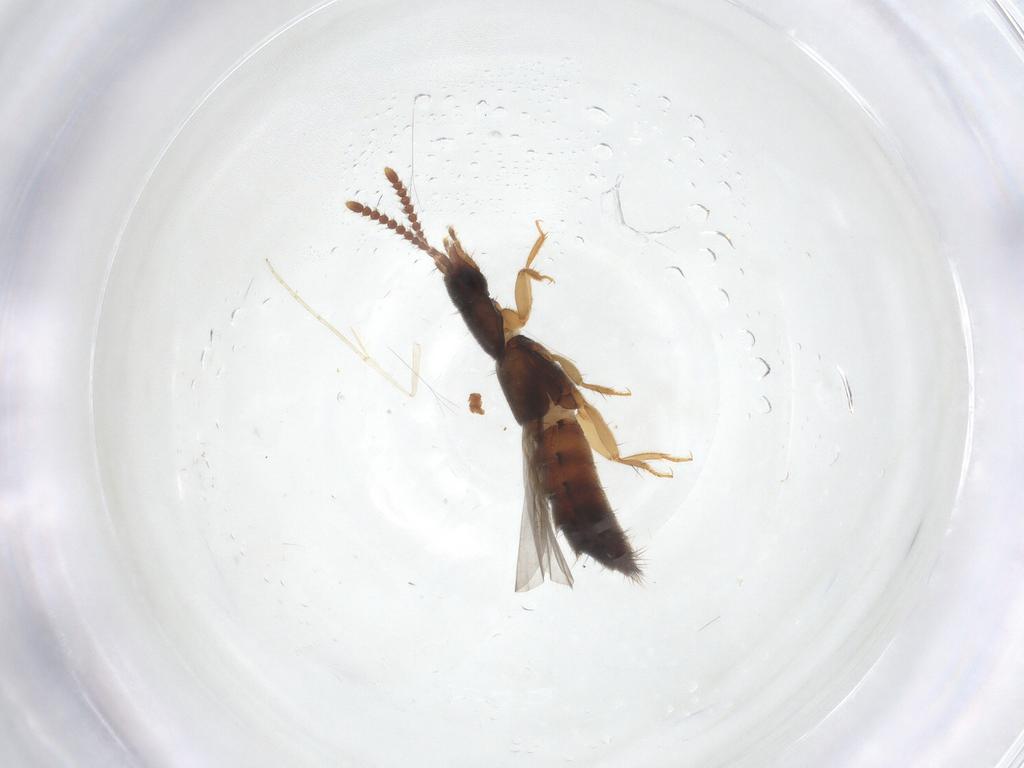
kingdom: Animalia
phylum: Arthropoda
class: Insecta
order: Coleoptera
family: Staphylinidae
